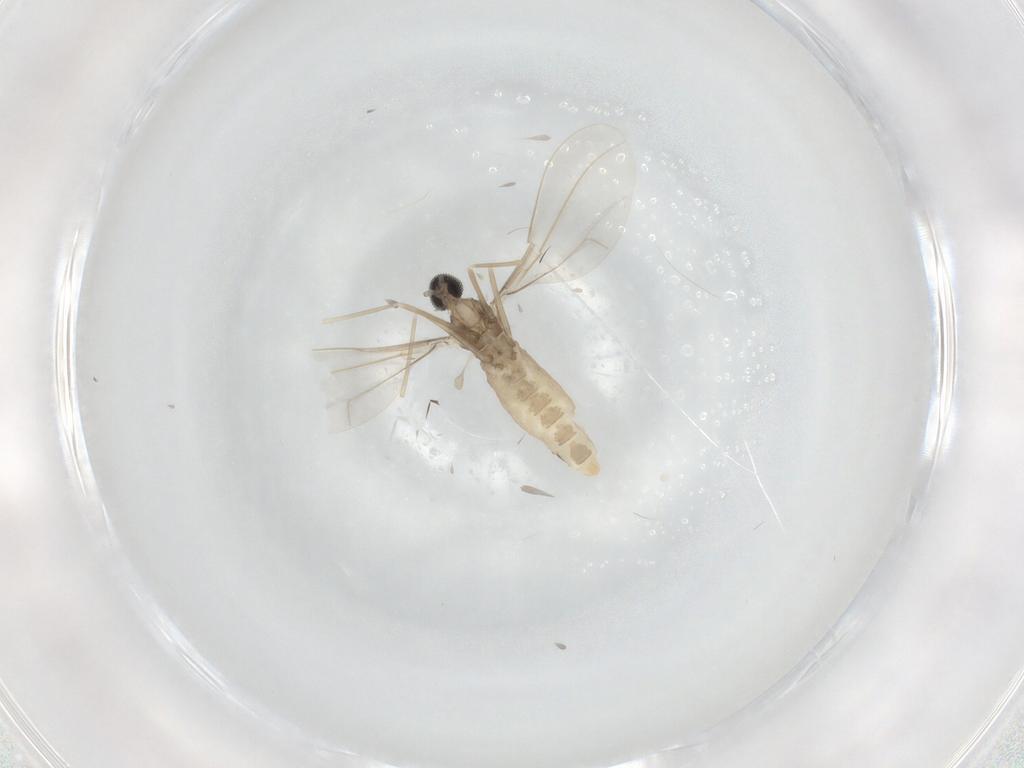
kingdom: Animalia
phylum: Arthropoda
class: Insecta
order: Diptera
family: Cecidomyiidae
